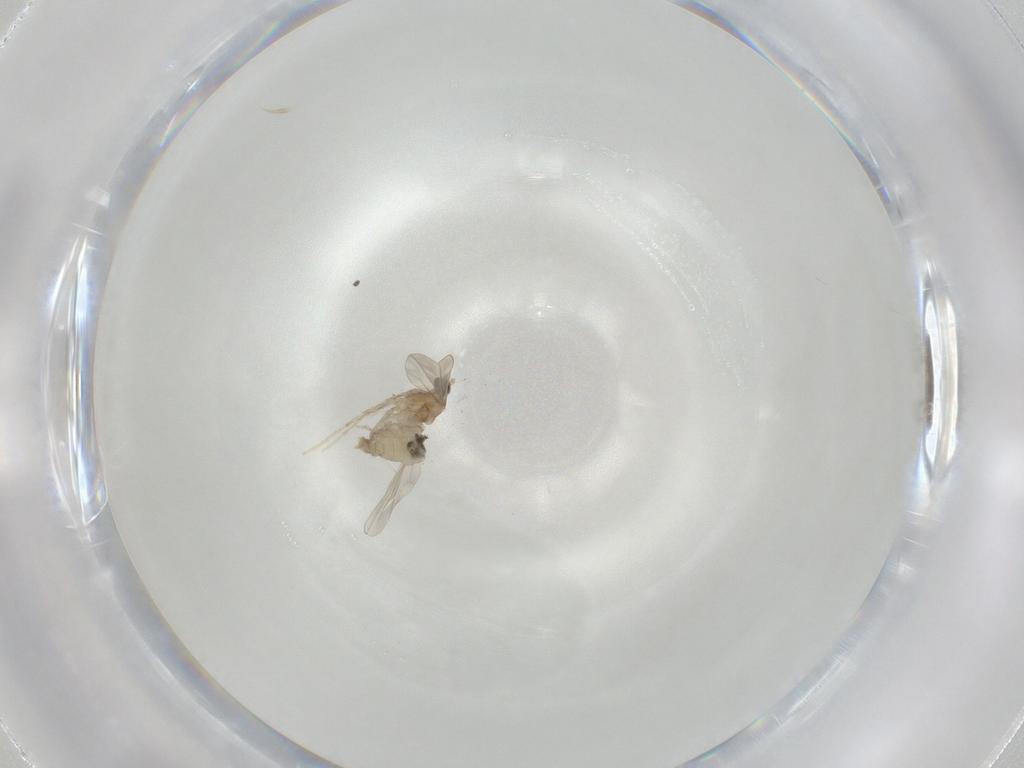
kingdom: Animalia
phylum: Arthropoda
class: Insecta
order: Diptera
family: Cecidomyiidae
